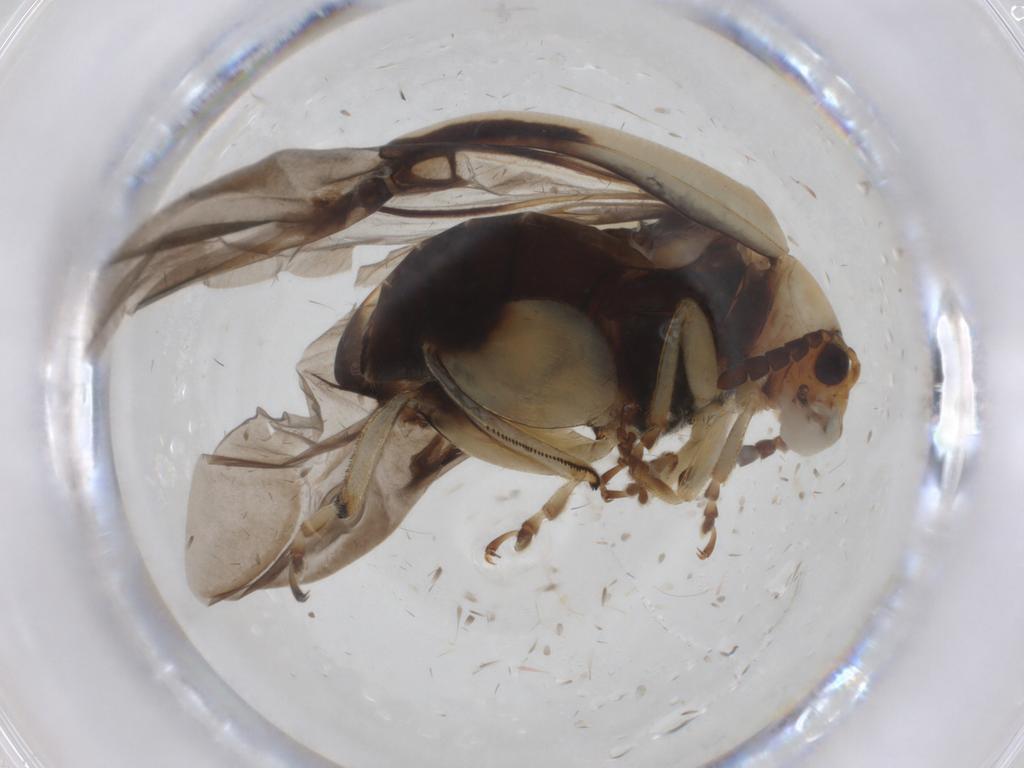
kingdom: Animalia
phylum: Arthropoda
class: Insecta
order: Coleoptera
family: Chrysomelidae
